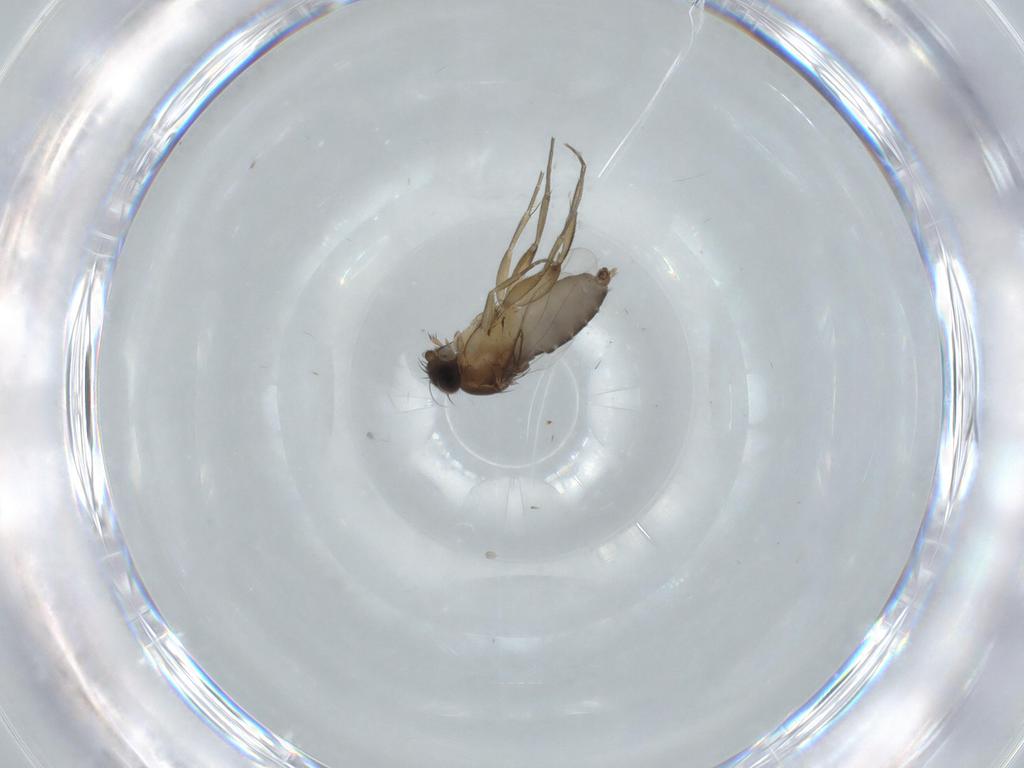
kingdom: Animalia
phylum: Arthropoda
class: Insecta
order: Diptera
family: Phoridae
